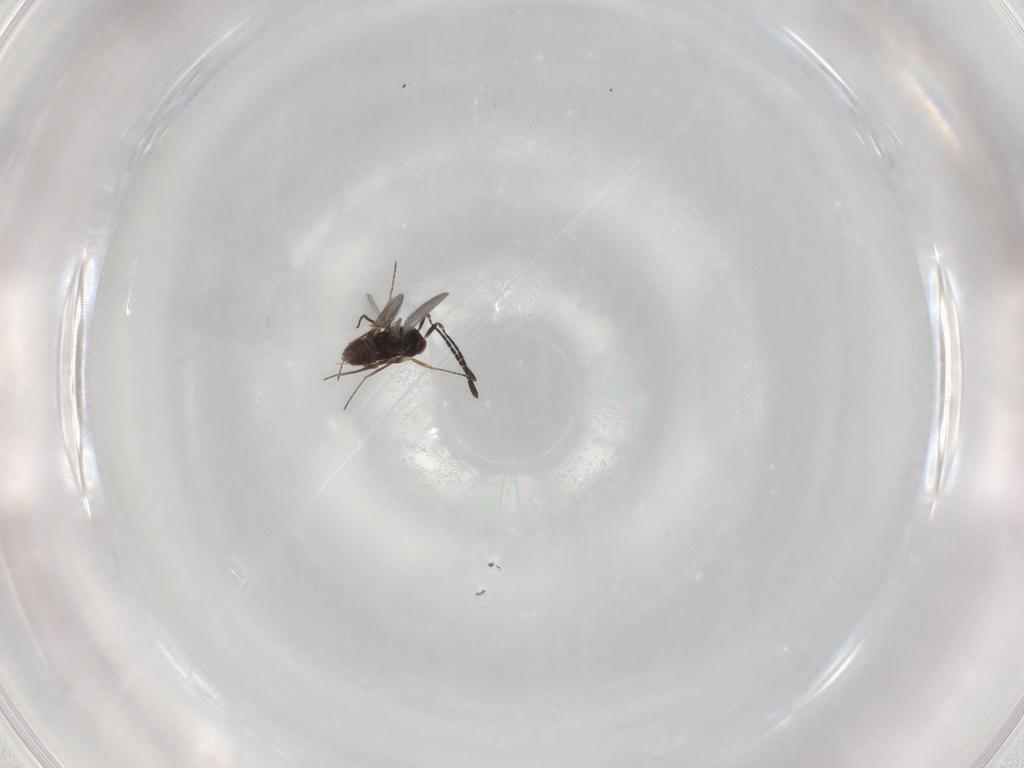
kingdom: Animalia
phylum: Arthropoda
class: Insecta
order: Hymenoptera
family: Mymaridae
